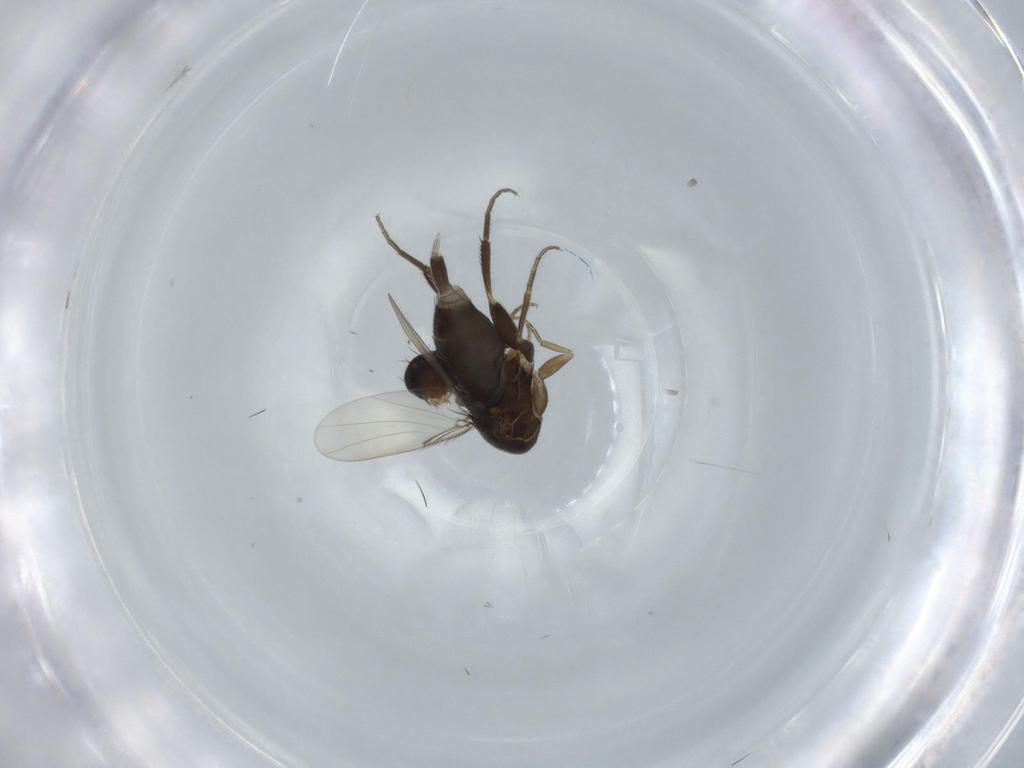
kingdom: Animalia
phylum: Arthropoda
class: Insecta
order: Diptera
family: Phoridae
